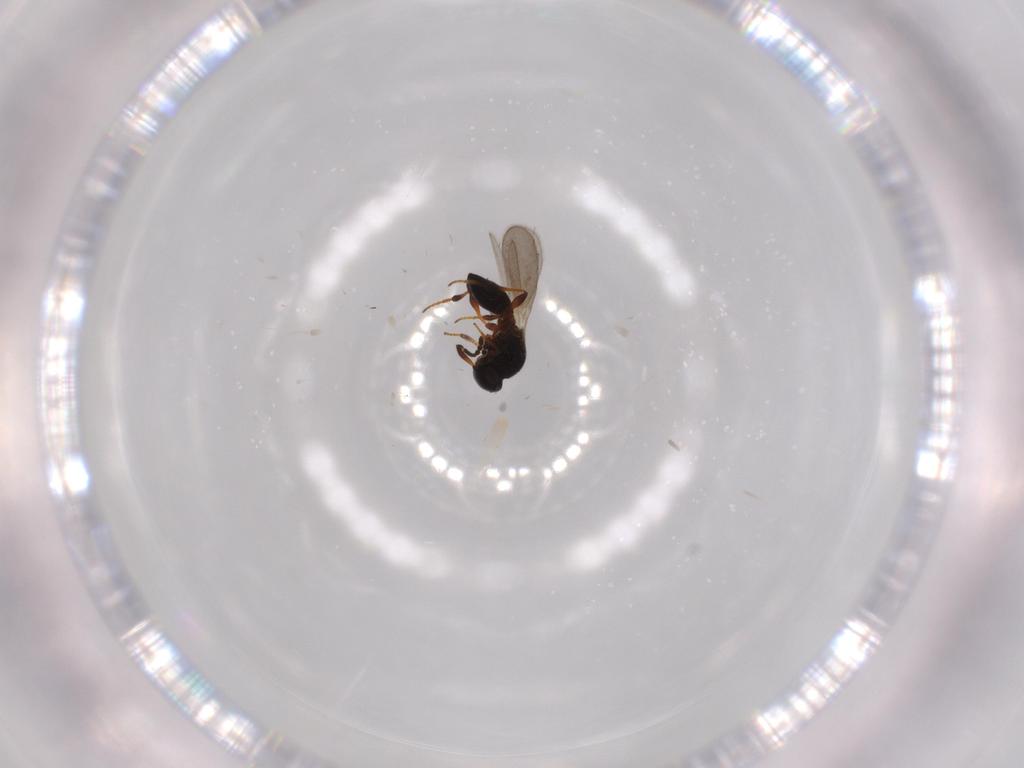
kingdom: Animalia
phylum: Arthropoda
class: Insecta
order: Hymenoptera
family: Platygastridae
